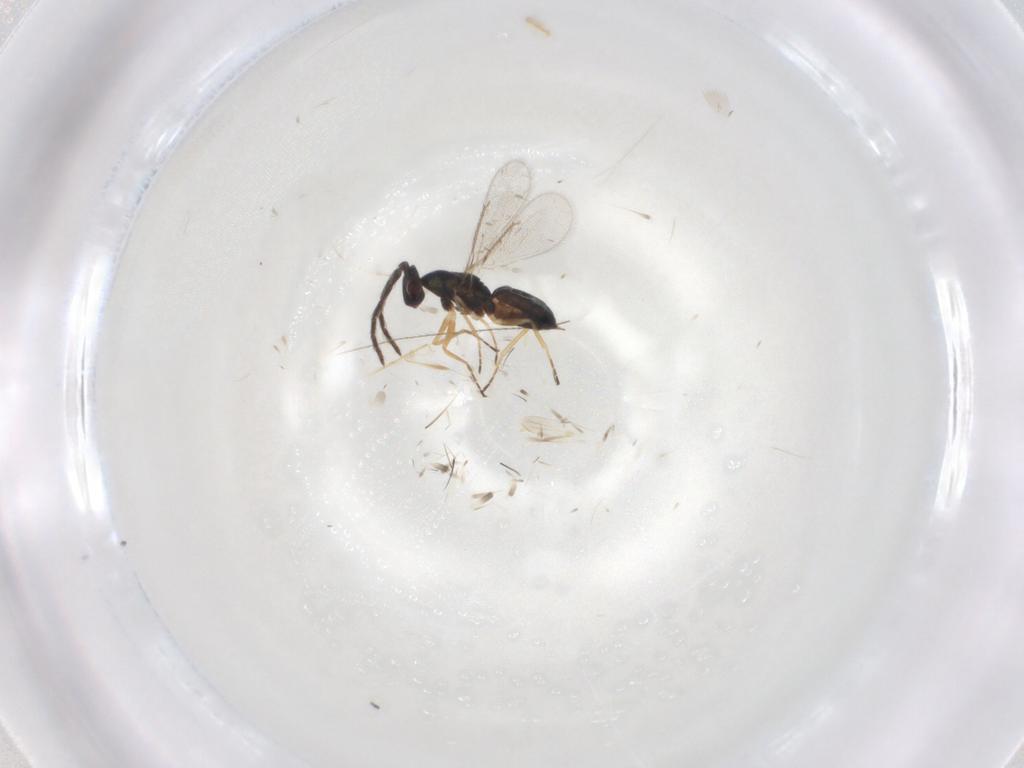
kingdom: Animalia
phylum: Arthropoda
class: Insecta
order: Hymenoptera
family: Eulophidae
